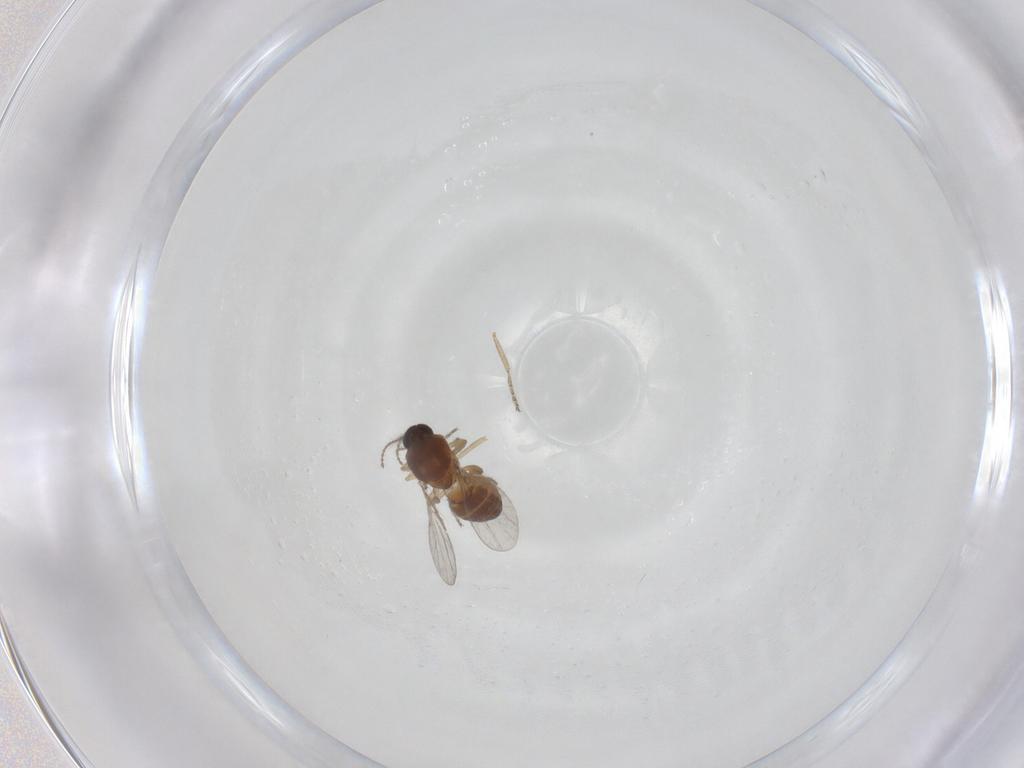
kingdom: Animalia
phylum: Arthropoda
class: Insecta
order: Diptera
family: Ceratopogonidae
